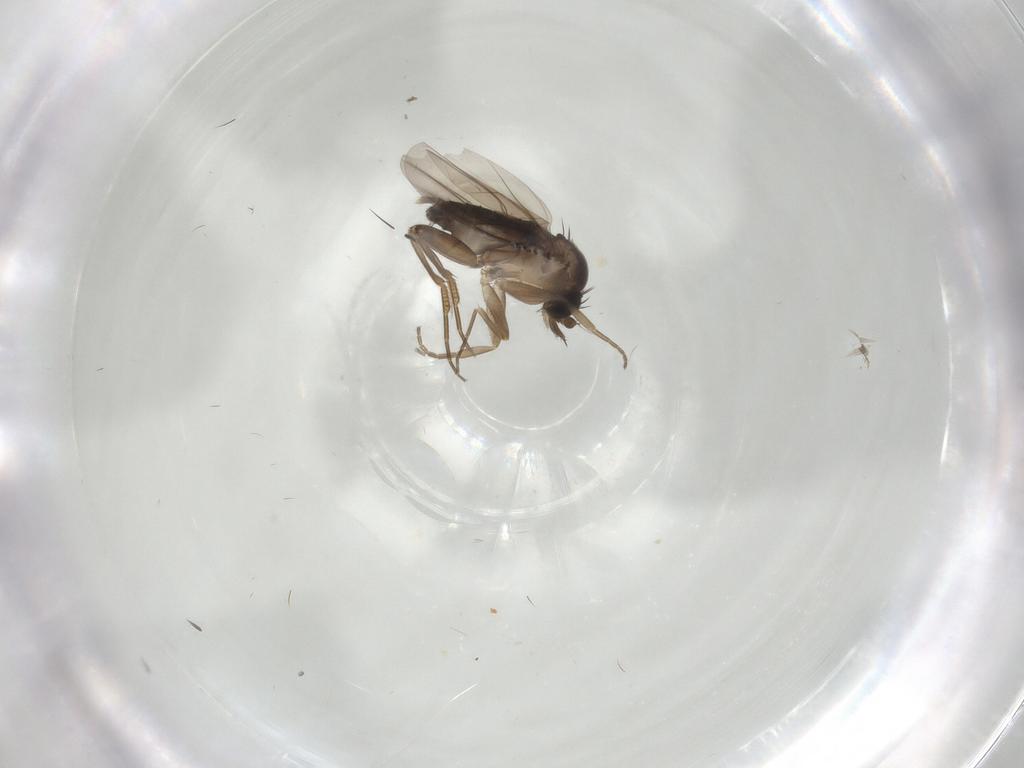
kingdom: Animalia
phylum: Arthropoda
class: Insecta
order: Diptera
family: Phoridae
